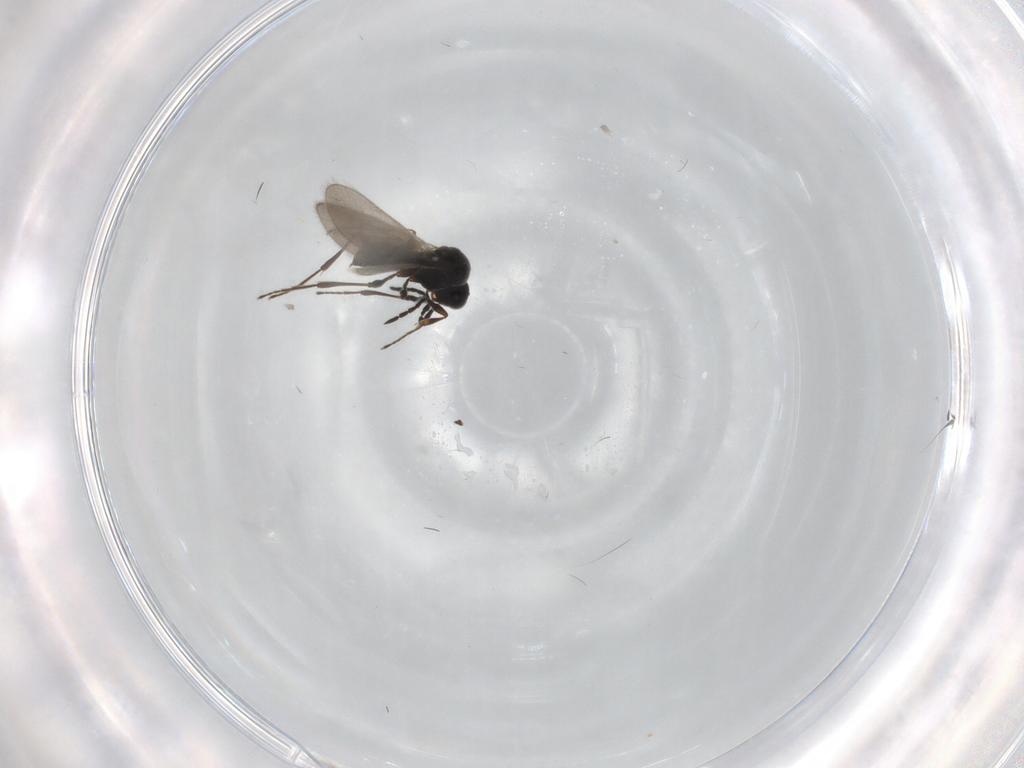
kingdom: Animalia
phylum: Arthropoda
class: Insecta
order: Hymenoptera
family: Platygastridae
